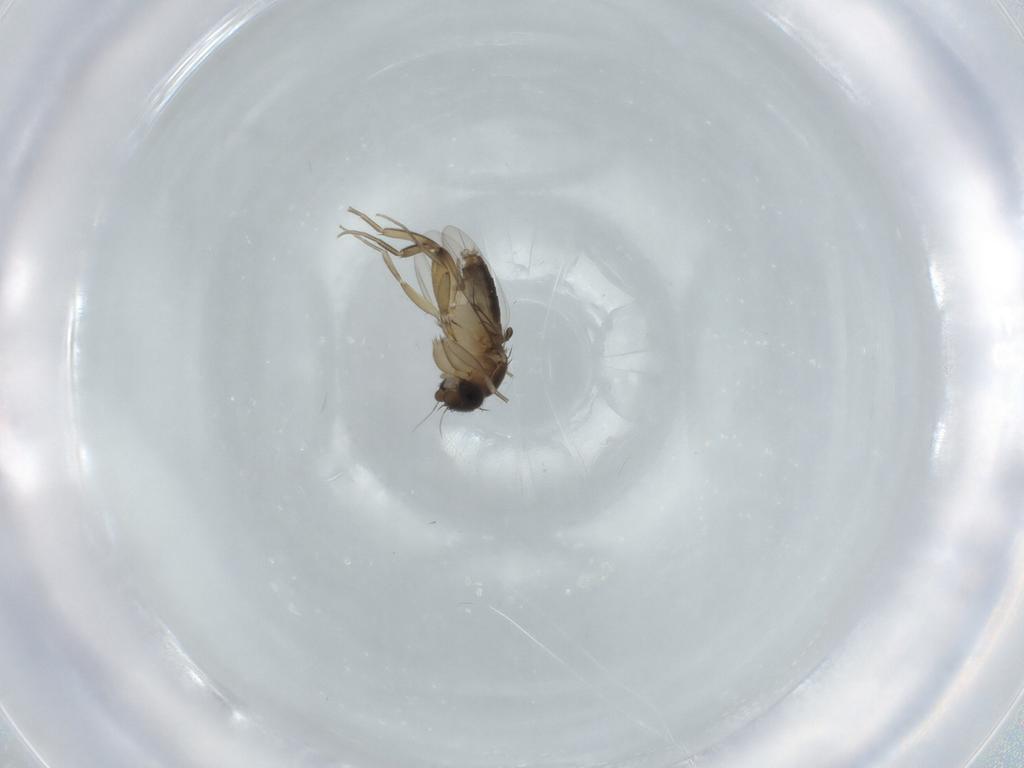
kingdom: Animalia
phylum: Arthropoda
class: Insecta
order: Diptera
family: Phoridae
